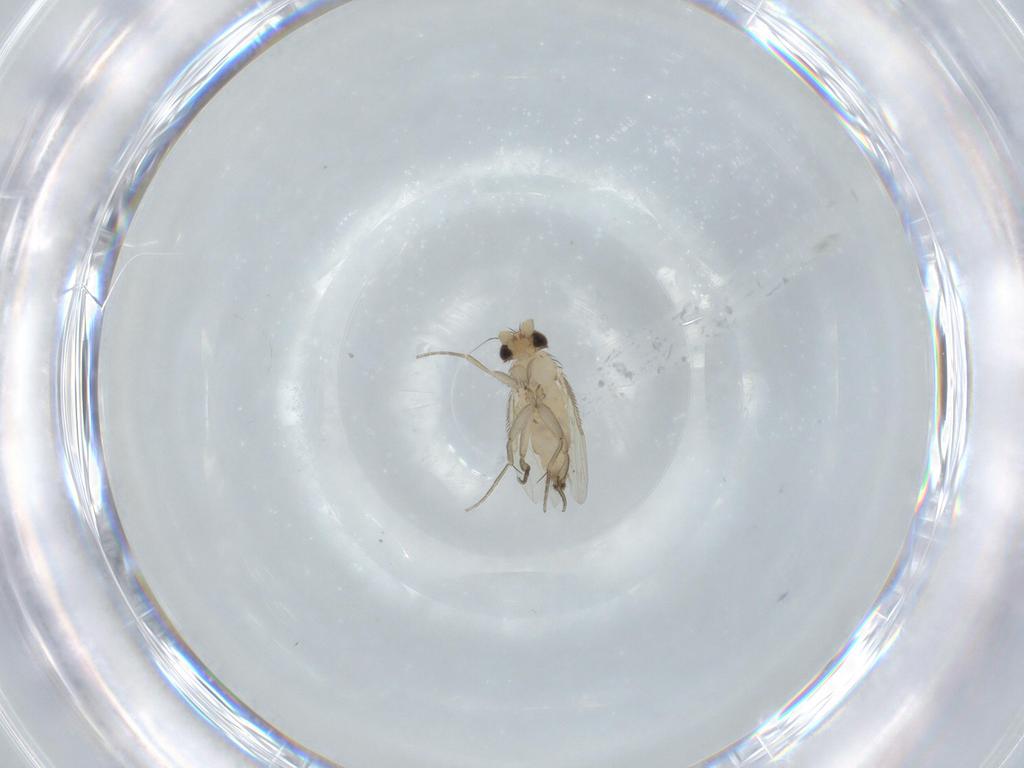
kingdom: Animalia
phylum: Arthropoda
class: Insecta
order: Diptera
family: Phoridae
